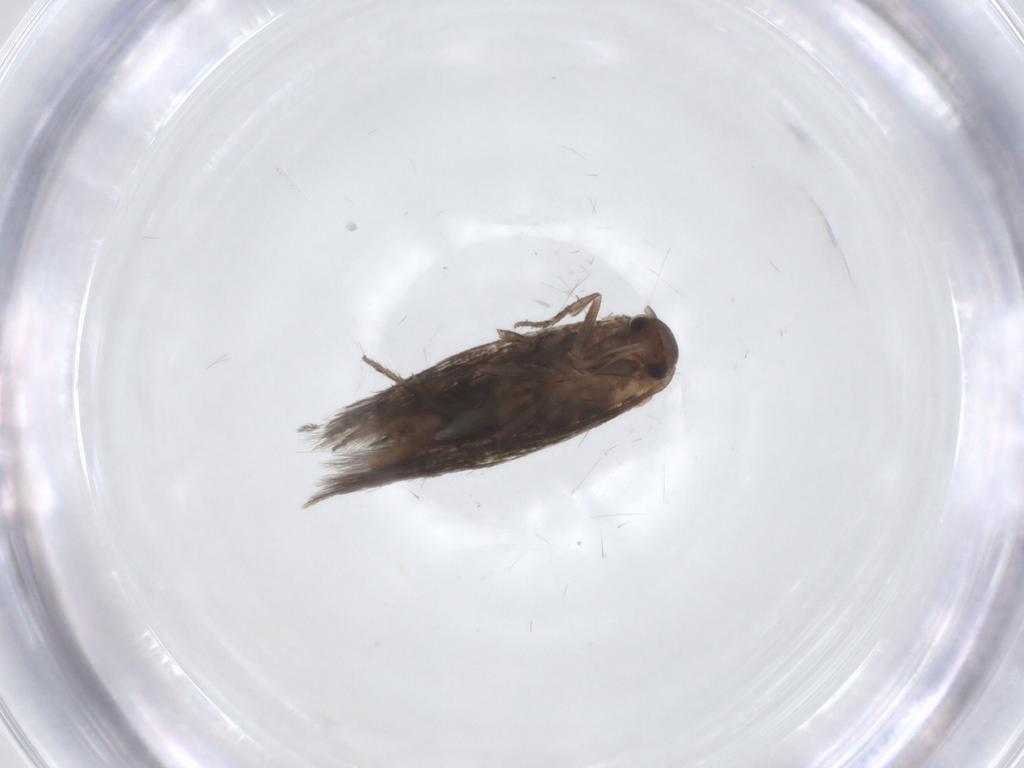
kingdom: Animalia
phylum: Arthropoda
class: Insecta
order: Lepidoptera
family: Elachistidae
